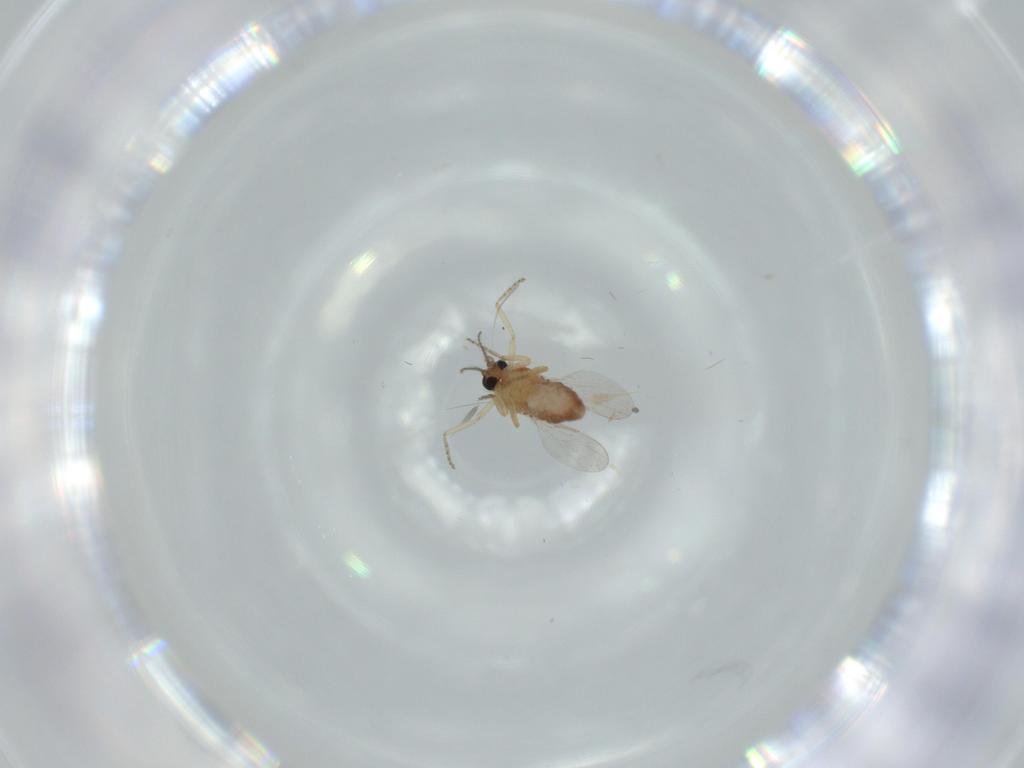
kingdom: Animalia
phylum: Arthropoda
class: Insecta
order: Diptera
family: Ceratopogonidae
